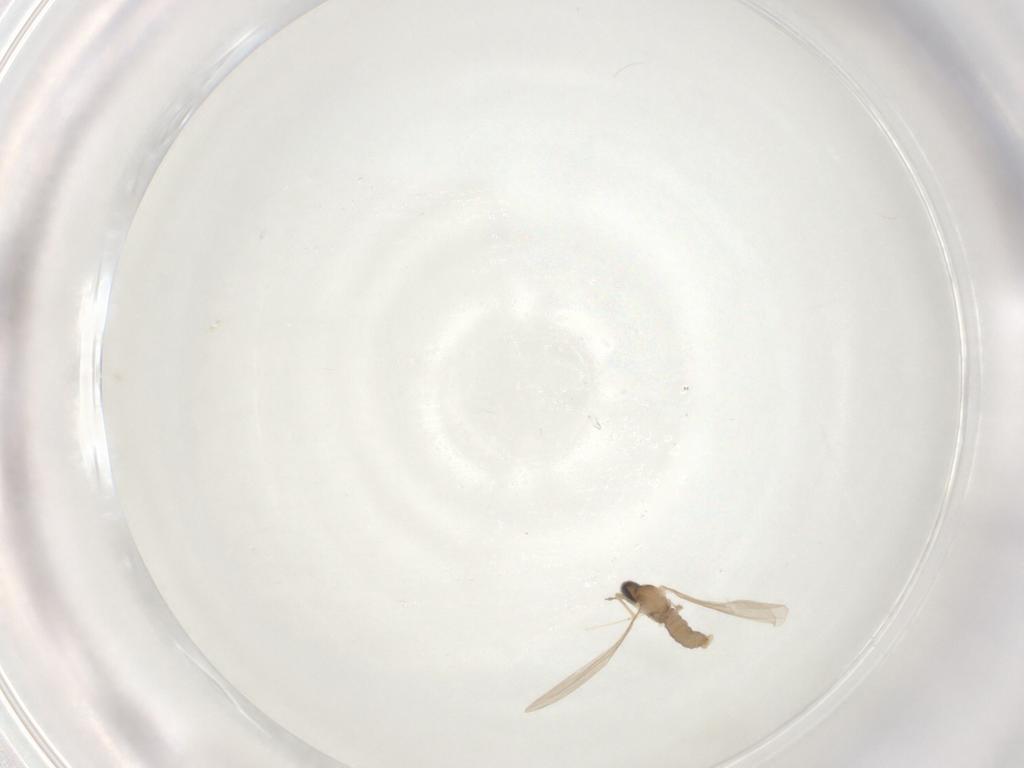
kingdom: Animalia
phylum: Arthropoda
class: Insecta
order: Diptera
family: Cecidomyiidae
